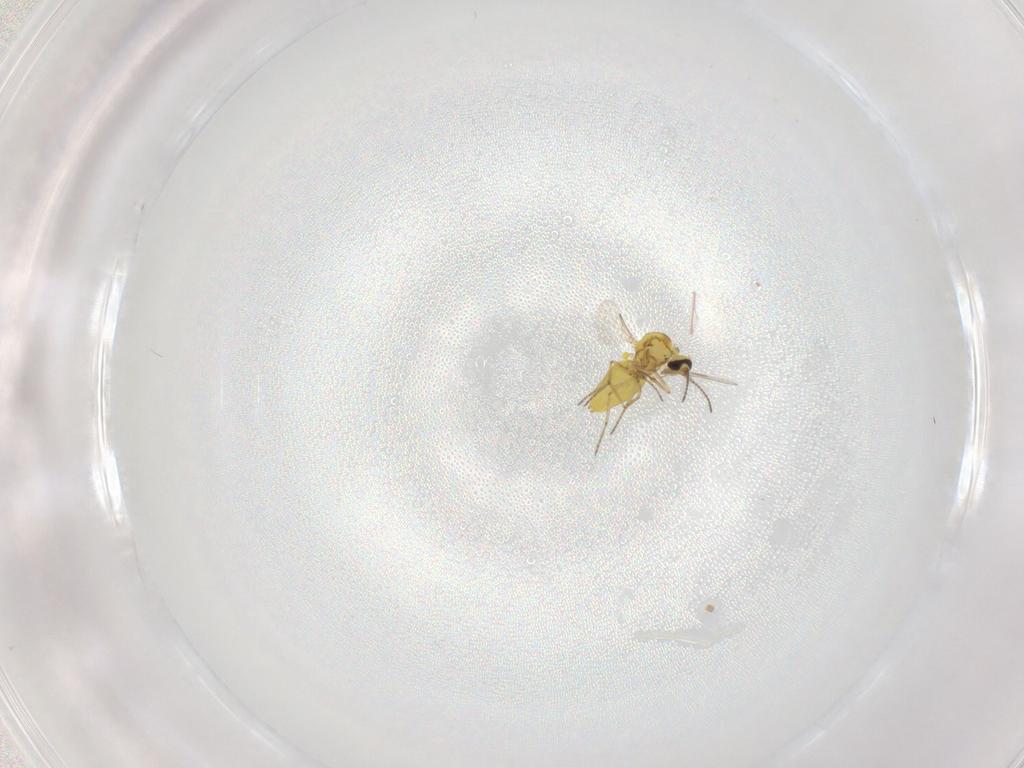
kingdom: Animalia
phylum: Arthropoda
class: Insecta
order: Diptera
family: Ceratopogonidae
